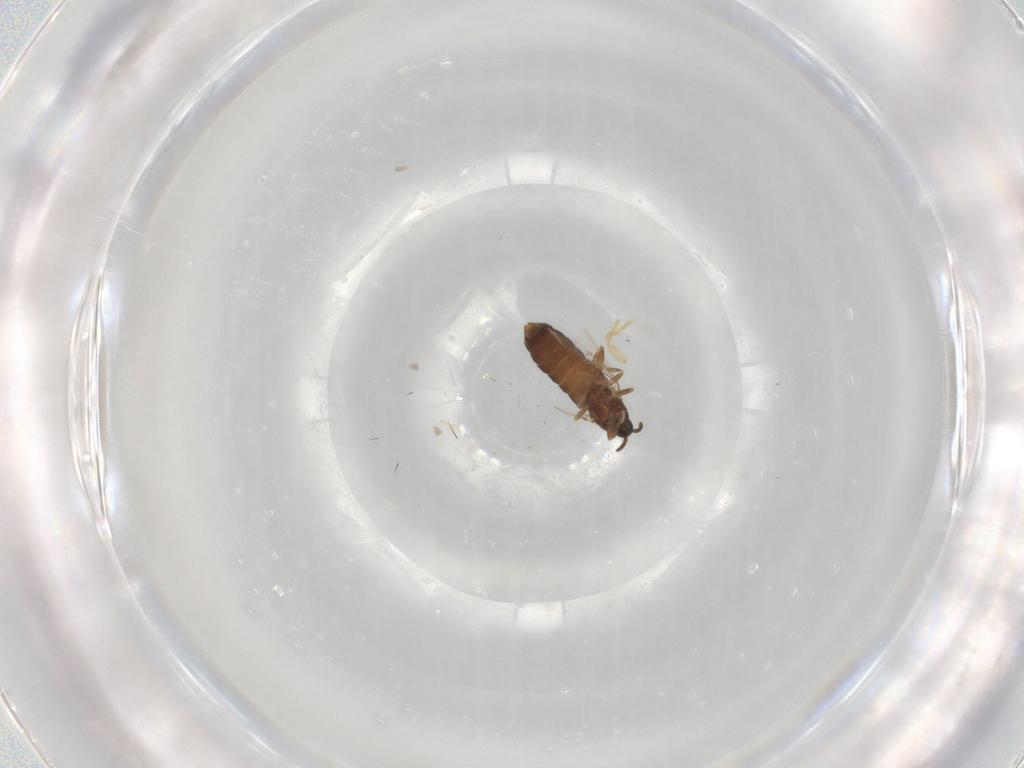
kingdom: Animalia
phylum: Arthropoda
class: Insecta
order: Diptera
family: Scatopsidae
